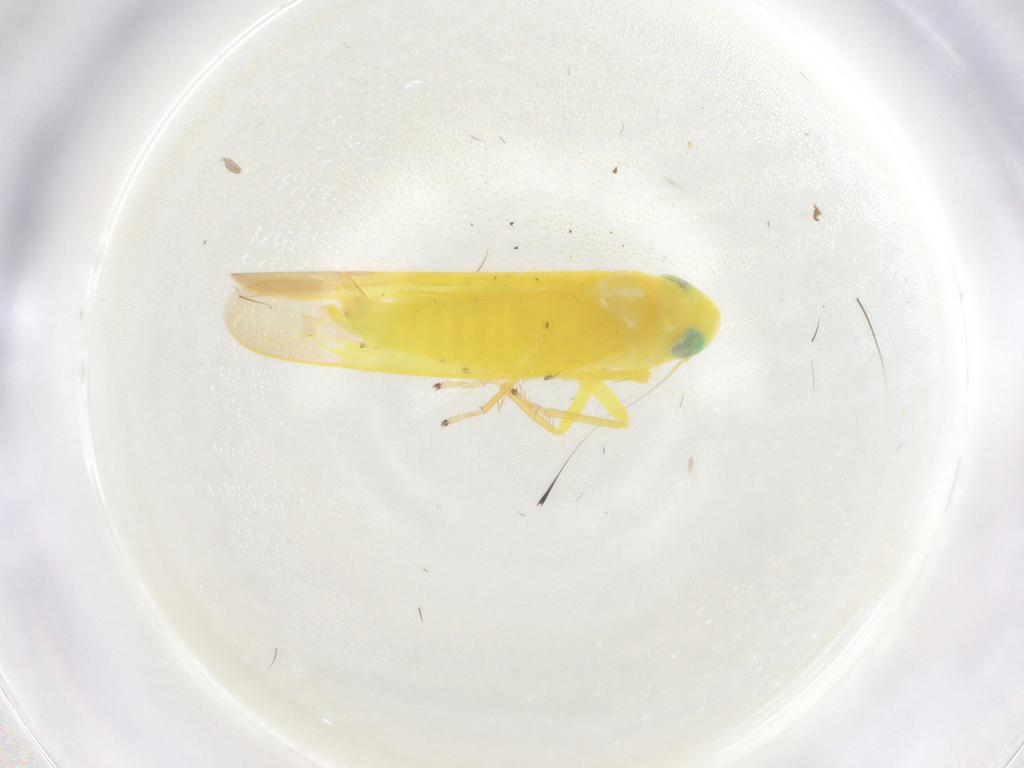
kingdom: Animalia
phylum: Arthropoda
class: Insecta
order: Hemiptera
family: Cicadellidae
